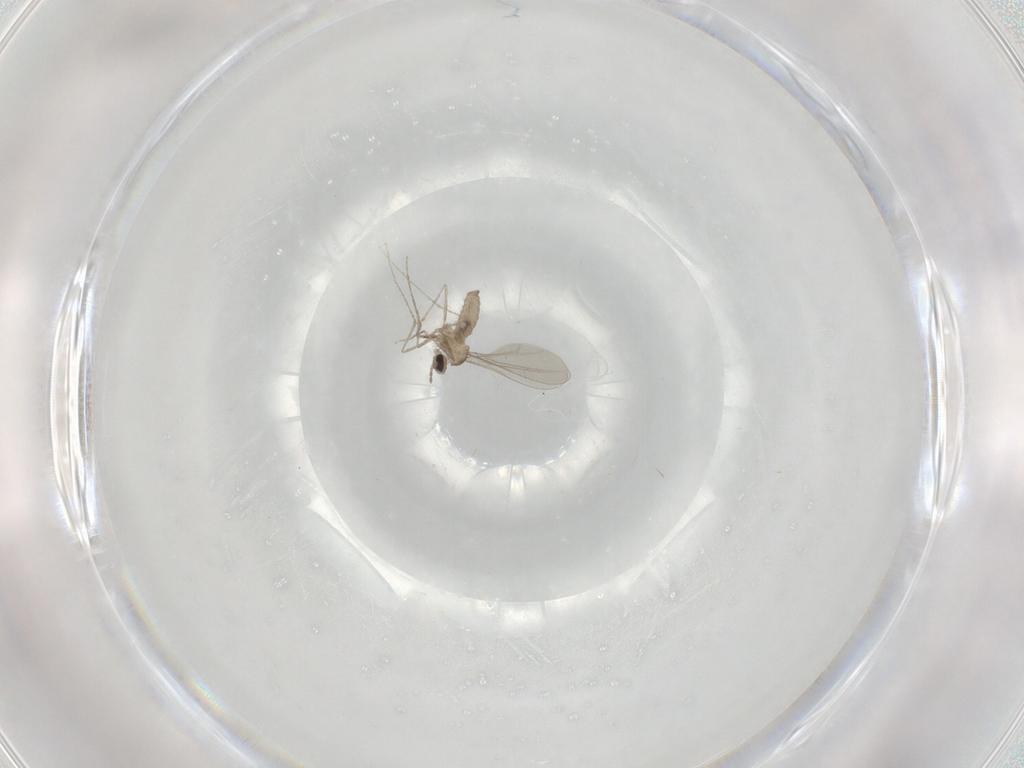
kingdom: Animalia
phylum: Arthropoda
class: Insecta
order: Diptera
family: Cecidomyiidae
